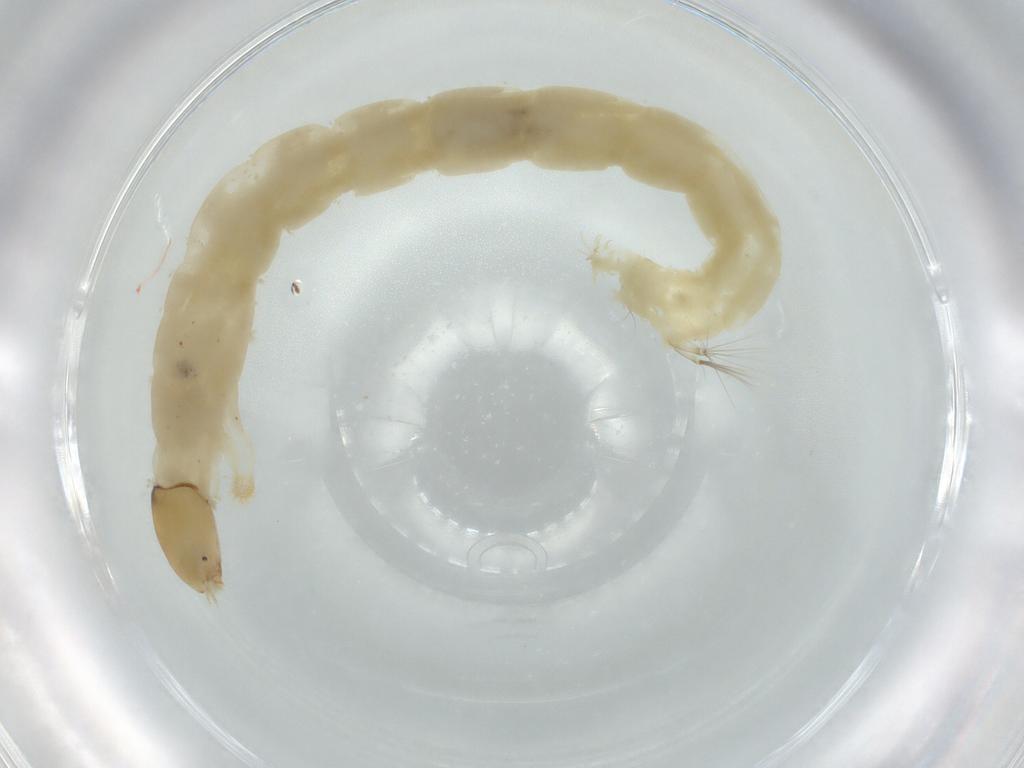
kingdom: Animalia
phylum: Arthropoda
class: Insecta
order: Diptera
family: Chironomidae
